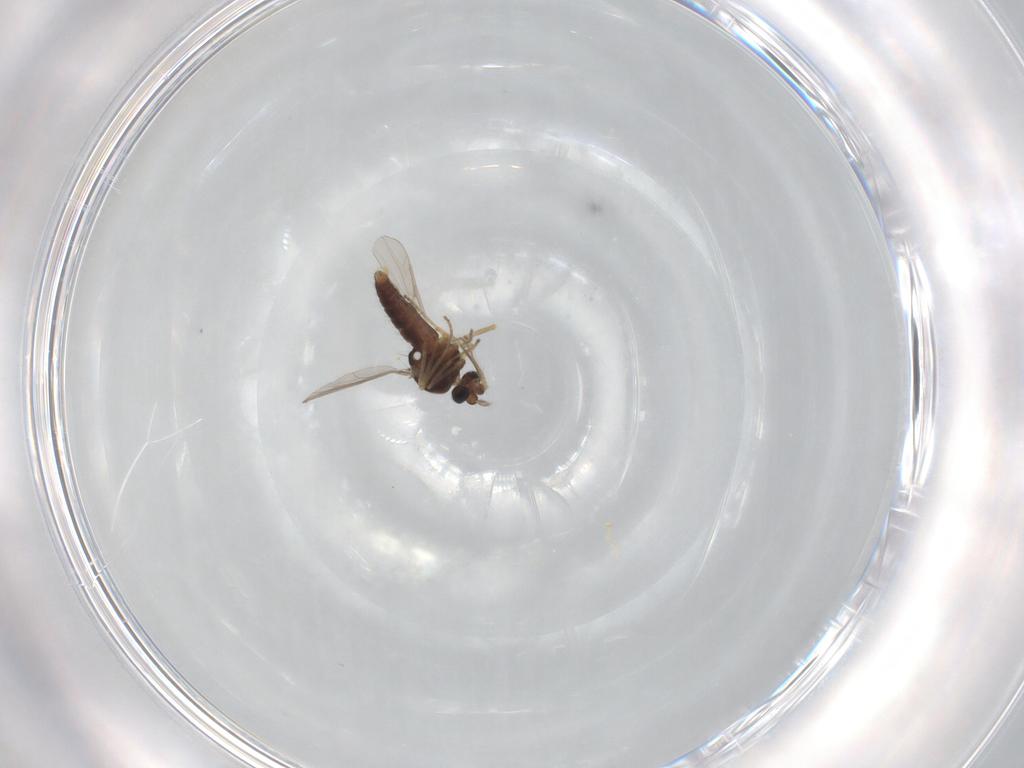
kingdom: Animalia
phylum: Arthropoda
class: Insecta
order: Diptera
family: Ceratopogonidae
